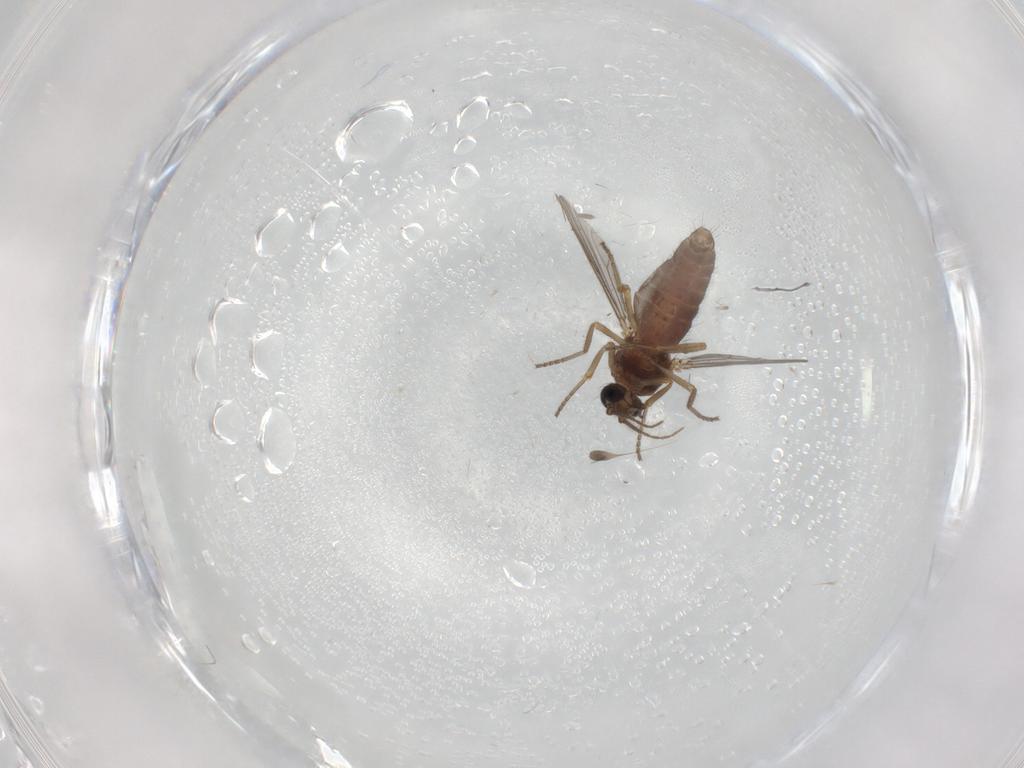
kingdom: Animalia
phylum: Arthropoda
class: Insecta
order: Diptera
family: Ceratopogonidae
